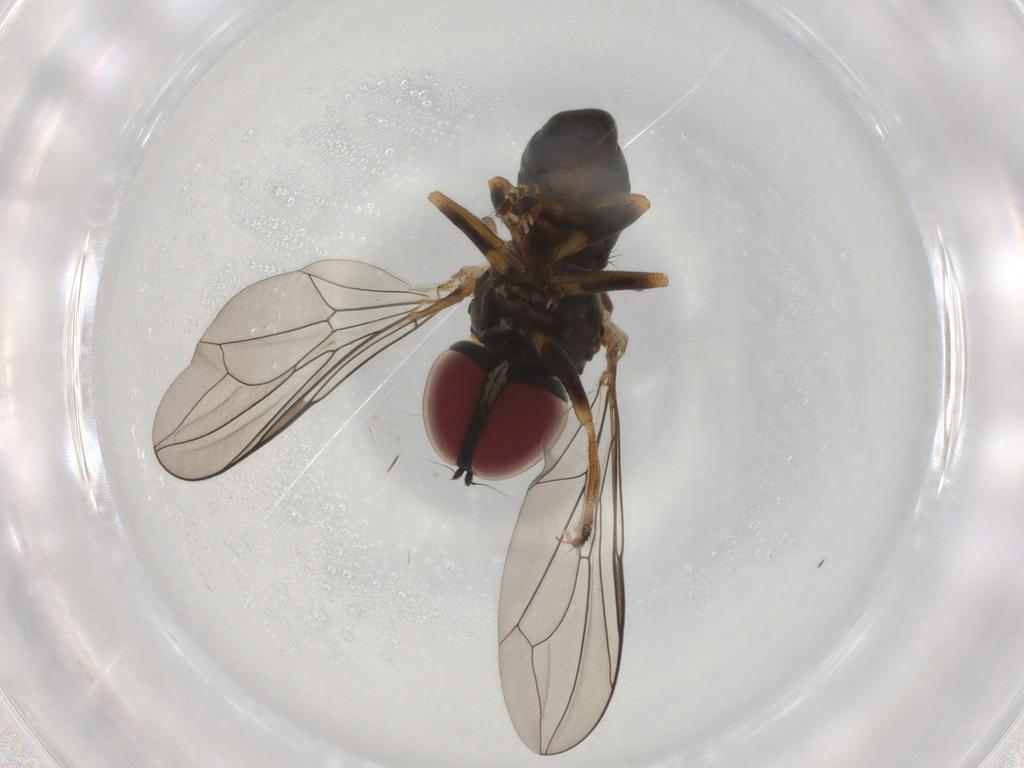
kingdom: Animalia
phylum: Arthropoda
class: Insecta
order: Diptera
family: Pipunculidae
